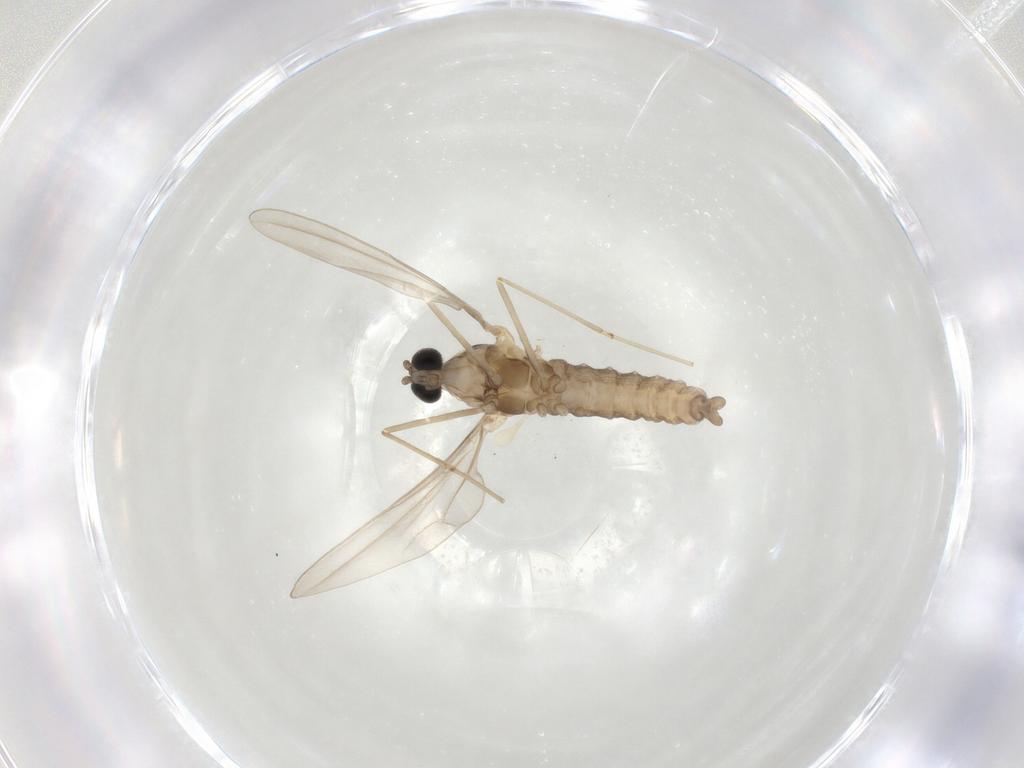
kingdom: Animalia
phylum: Arthropoda
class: Insecta
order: Diptera
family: Cecidomyiidae
